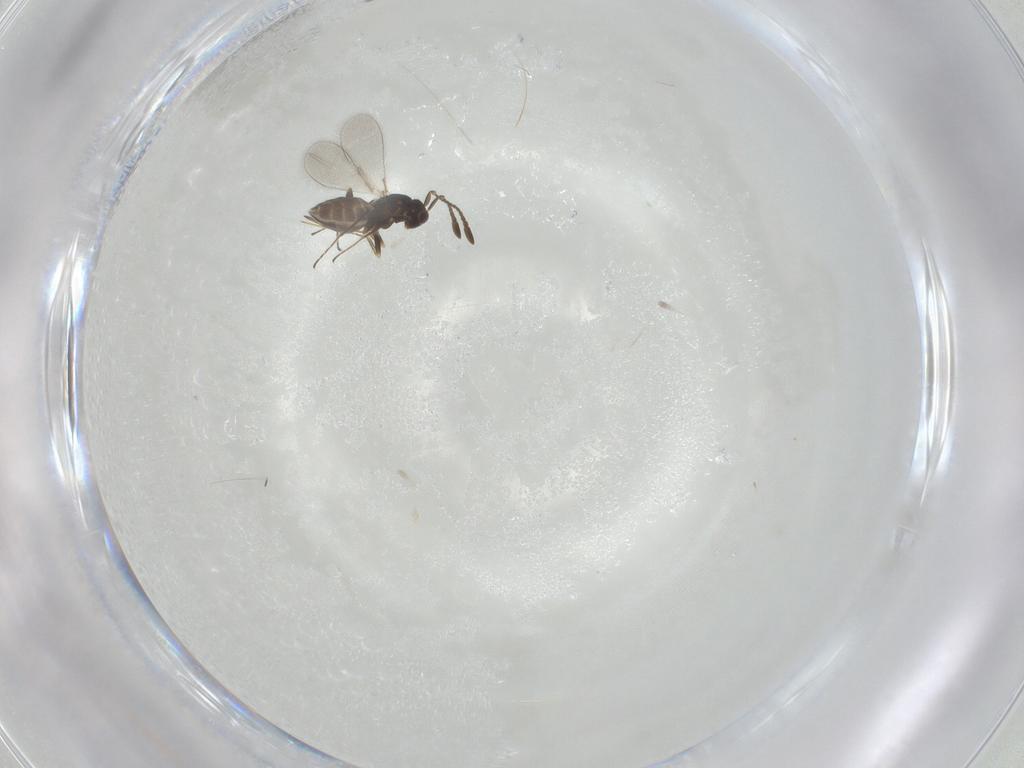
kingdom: Animalia
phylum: Arthropoda
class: Insecta
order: Hymenoptera
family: Mymaridae
